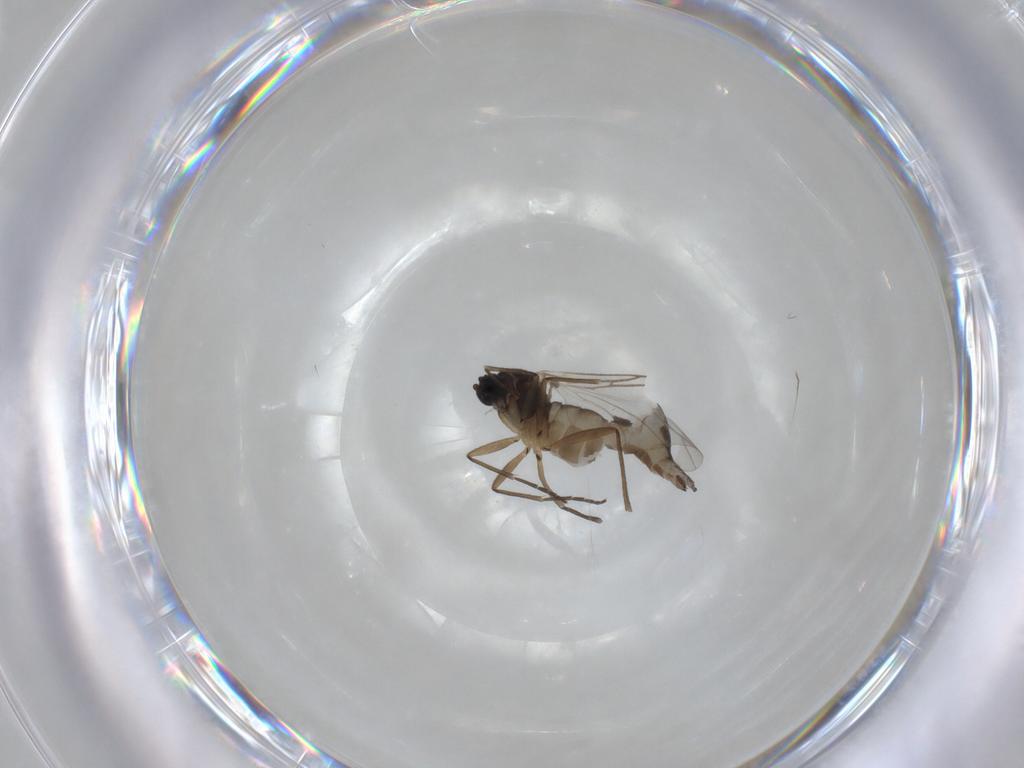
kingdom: Animalia
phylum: Arthropoda
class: Insecta
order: Diptera
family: Sciaridae
